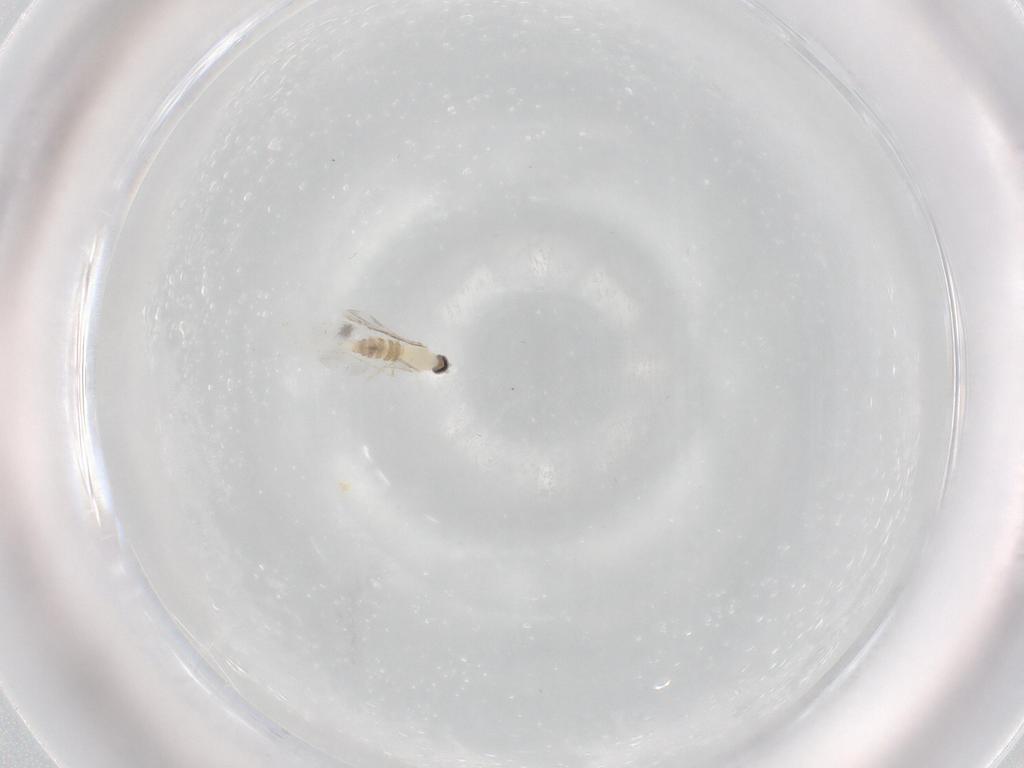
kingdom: Animalia
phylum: Arthropoda
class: Insecta
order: Diptera
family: Cecidomyiidae
